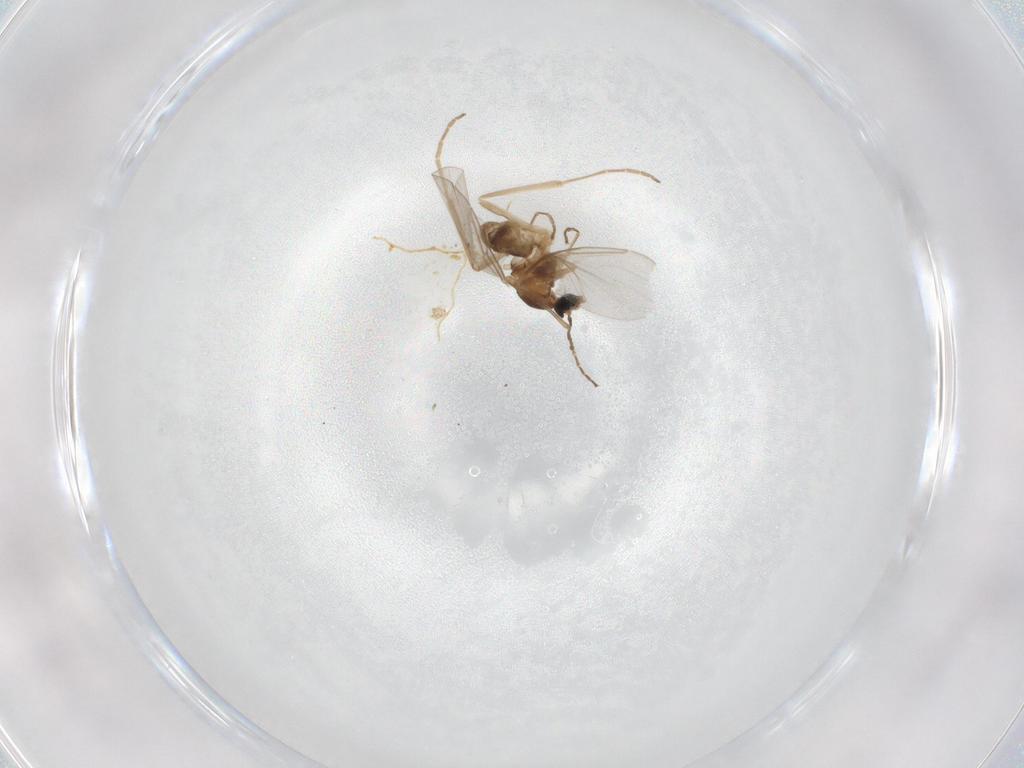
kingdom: Animalia
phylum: Arthropoda
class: Insecta
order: Diptera
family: Cecidomyiidae
